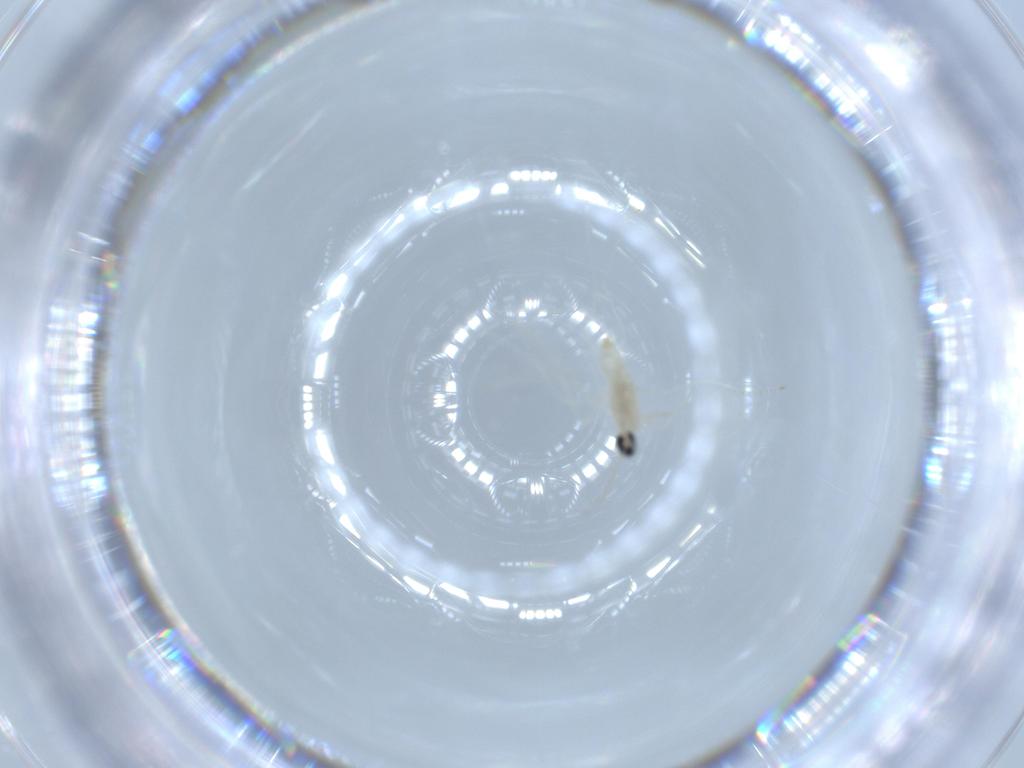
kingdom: Animalia
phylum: Arthropoda
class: Insecta
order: Diptera
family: Cecidomyiidae
